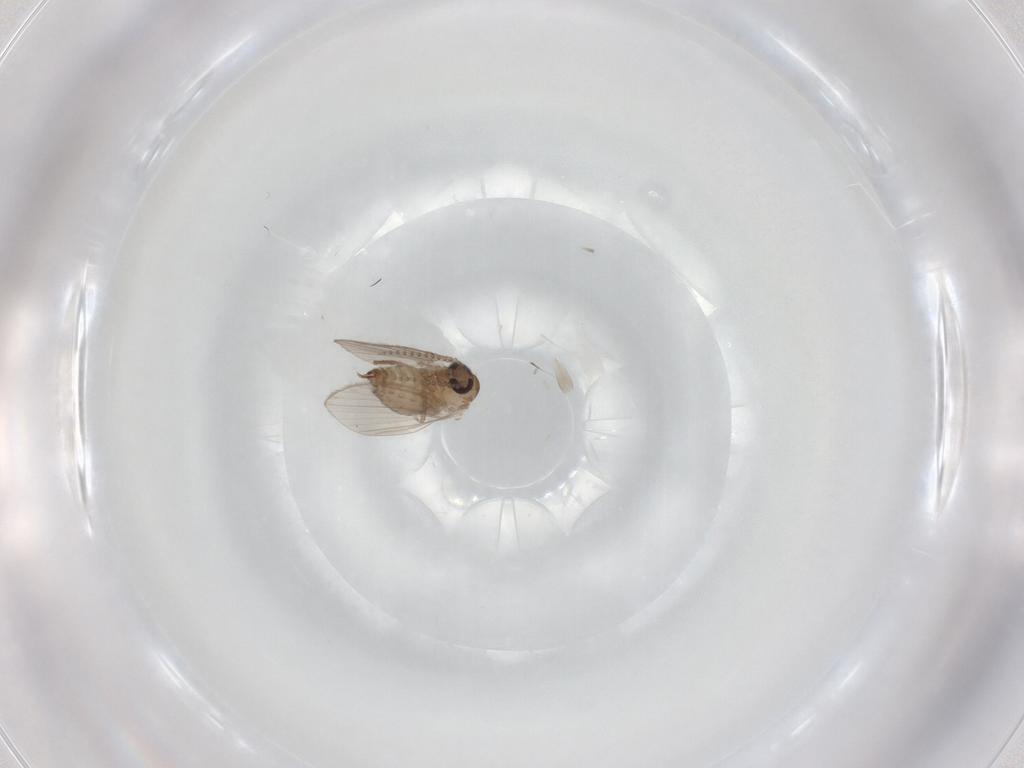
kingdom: Animalia
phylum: Arthropoda
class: Insecta
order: Diptera
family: Psychodidae
